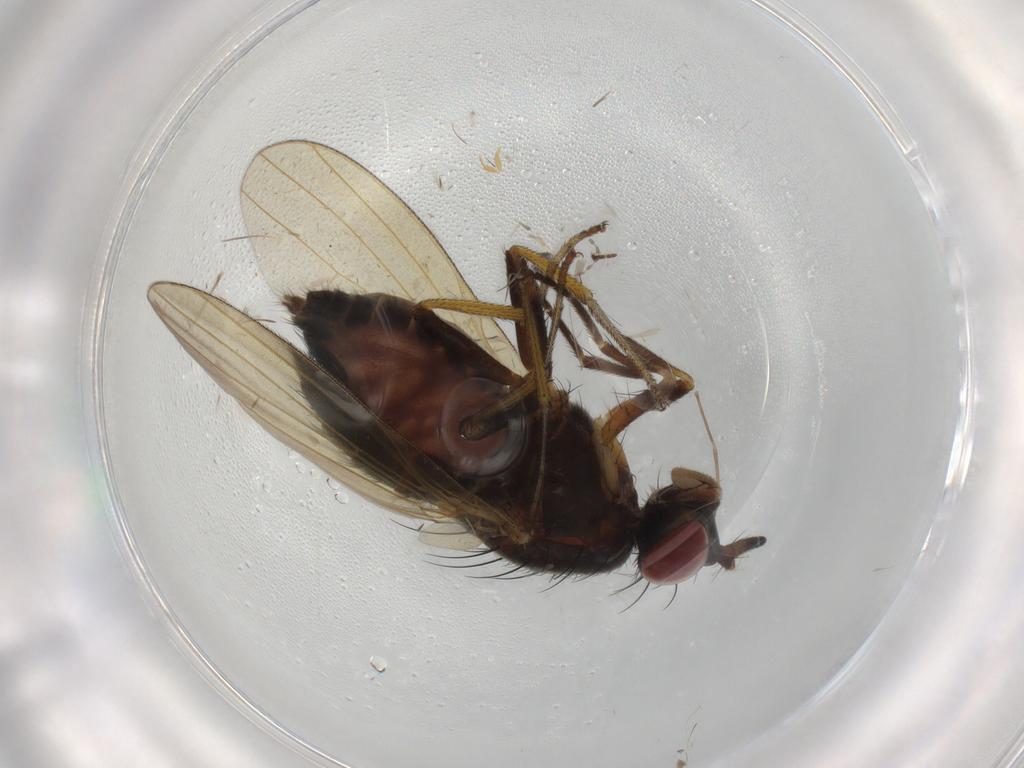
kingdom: Animalia
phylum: Arthropoda
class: Insecta
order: Diptera
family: Lauxaniidae
